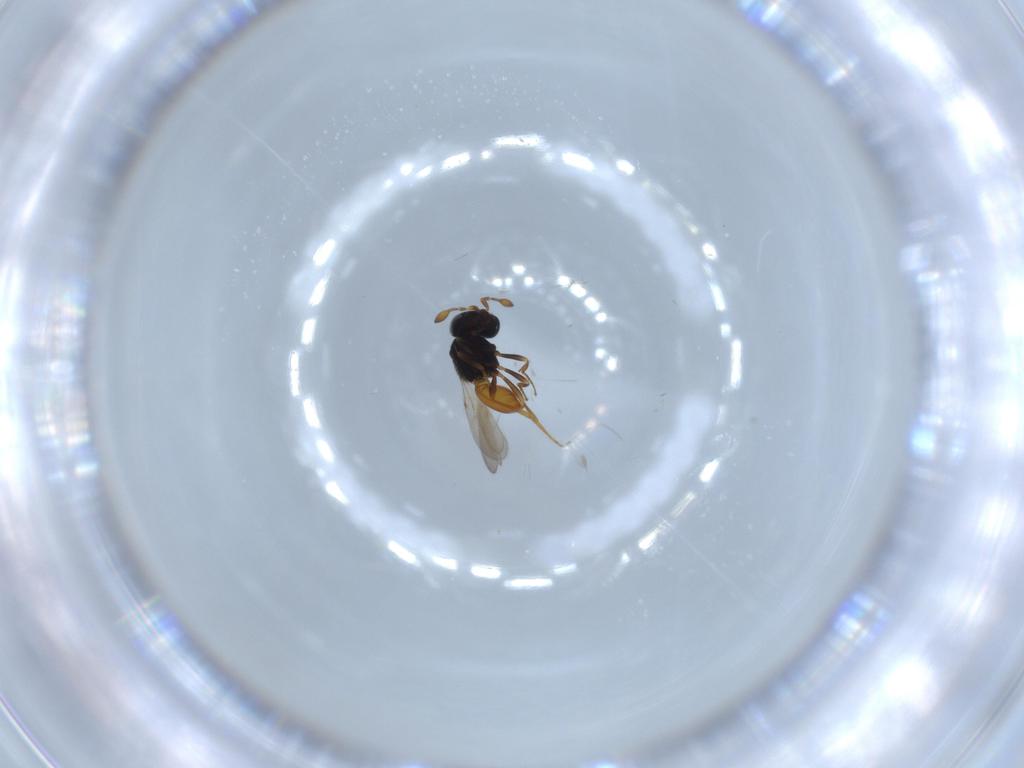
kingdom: Animalia
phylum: Arthropoda
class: Insecta
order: Hymenoptera
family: Scelionidae
